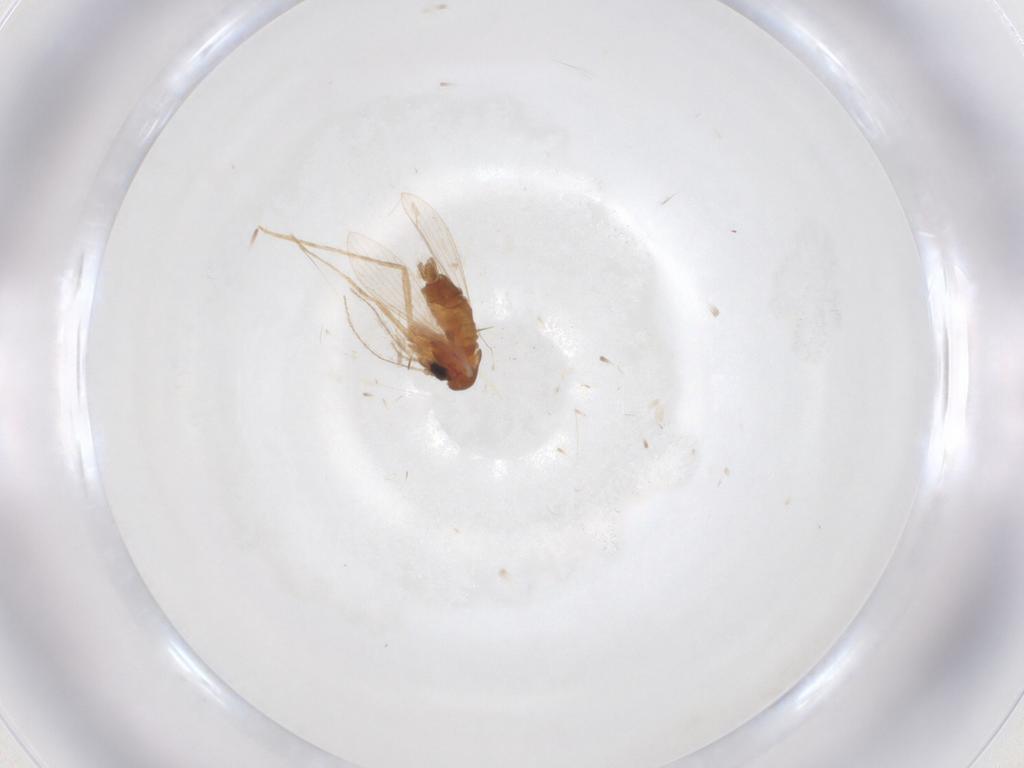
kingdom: Animalia
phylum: Arthropoda
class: Insecta
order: Diptera
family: Psychodidae
